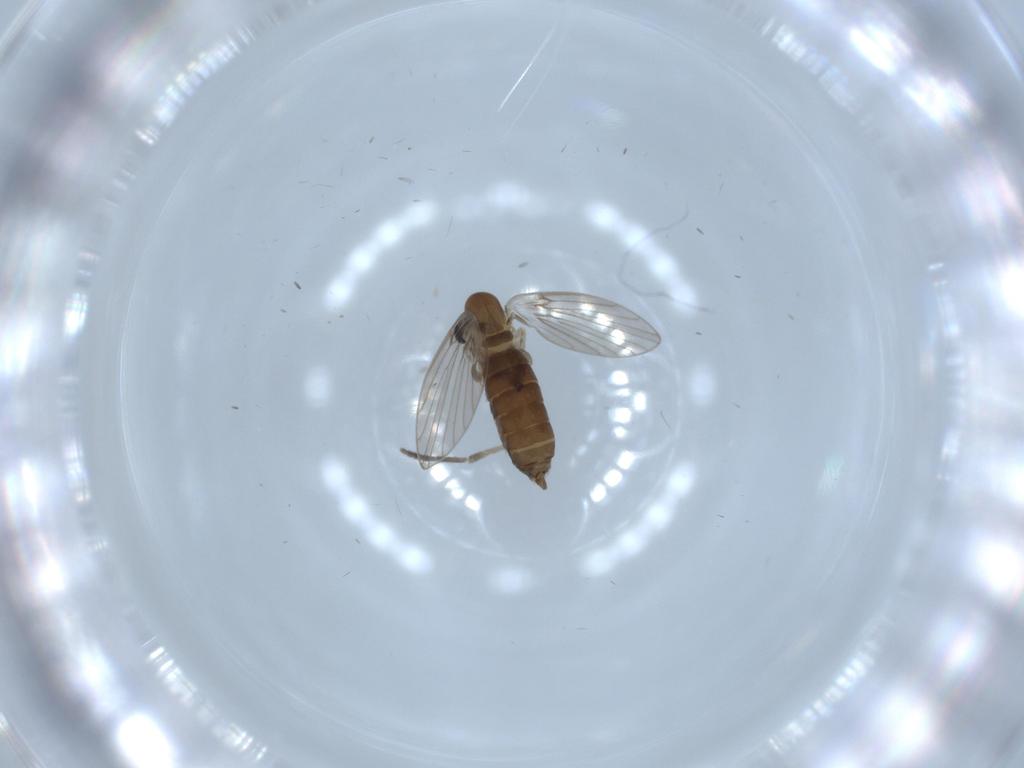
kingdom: Animalia
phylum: Arthropoda
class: Insecta
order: Diptera
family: Psychodidae
